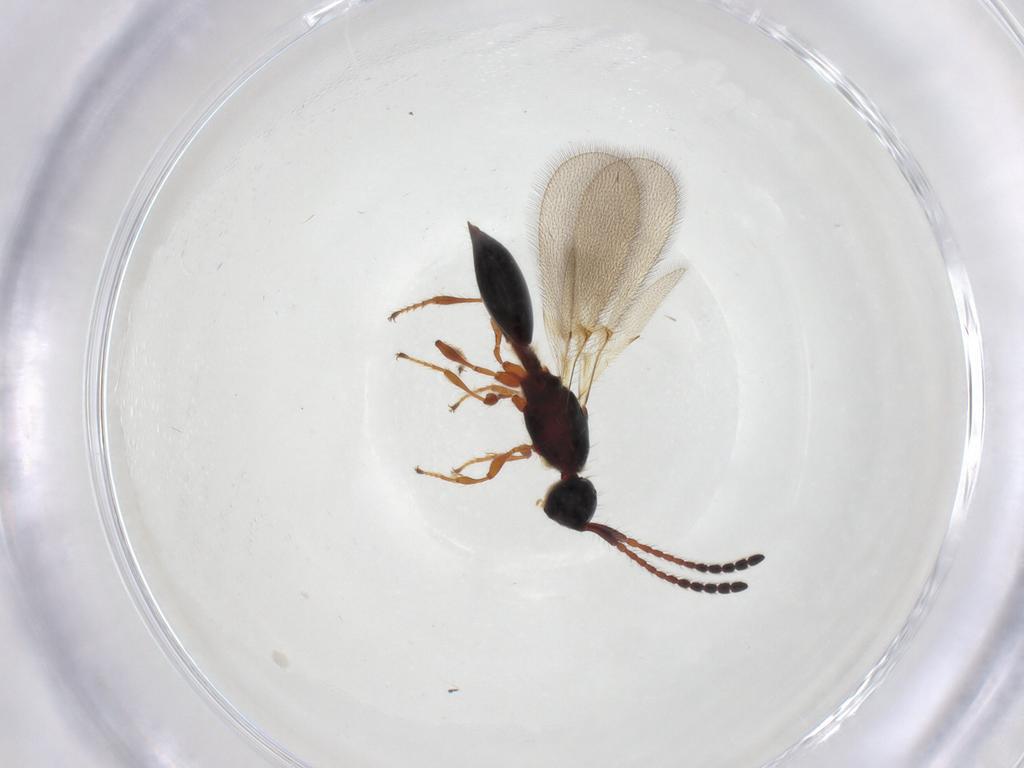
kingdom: Animalia
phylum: Arthropoda
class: Insecta
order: Hymenoptera
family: Diapriidae
